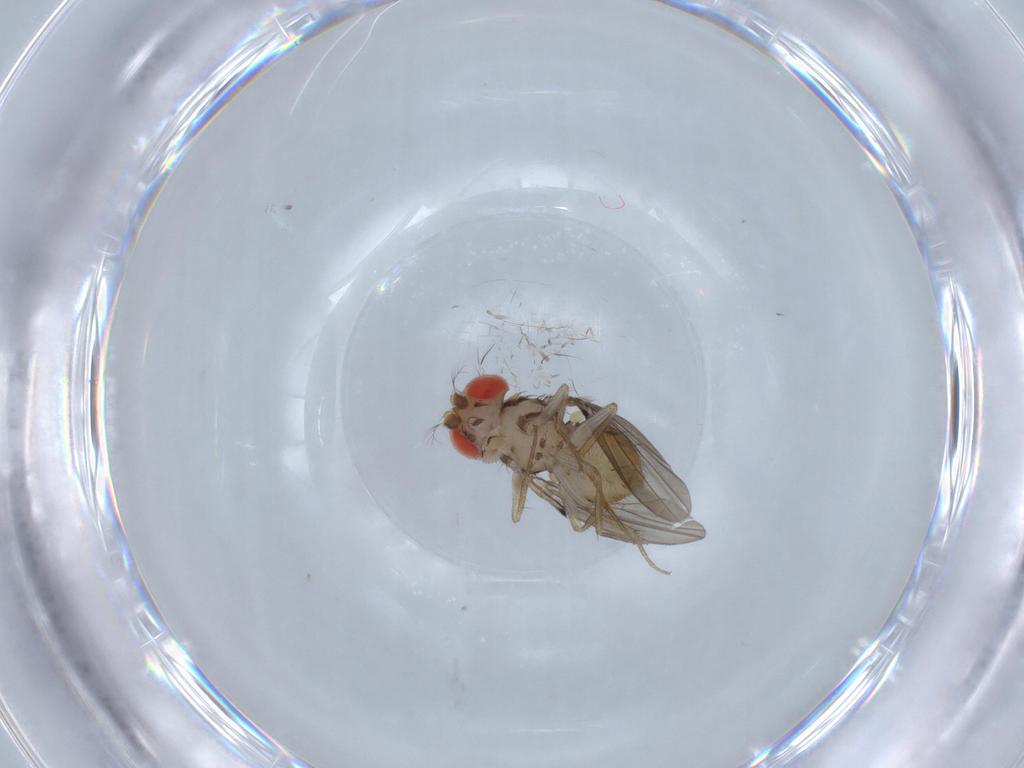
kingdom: Animalia
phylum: Arthropoda
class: Insecta
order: Diptera
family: Drosophilidae
